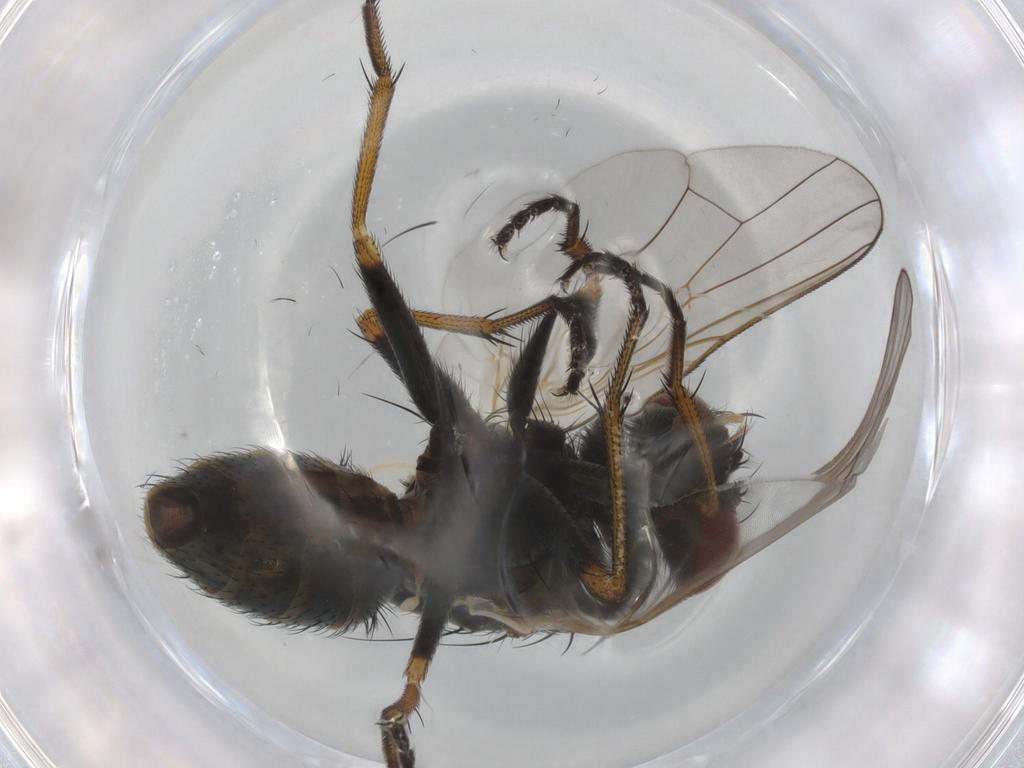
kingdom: Animalia
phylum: Arthropoda
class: Insecta
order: Diptera
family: Muscidae
